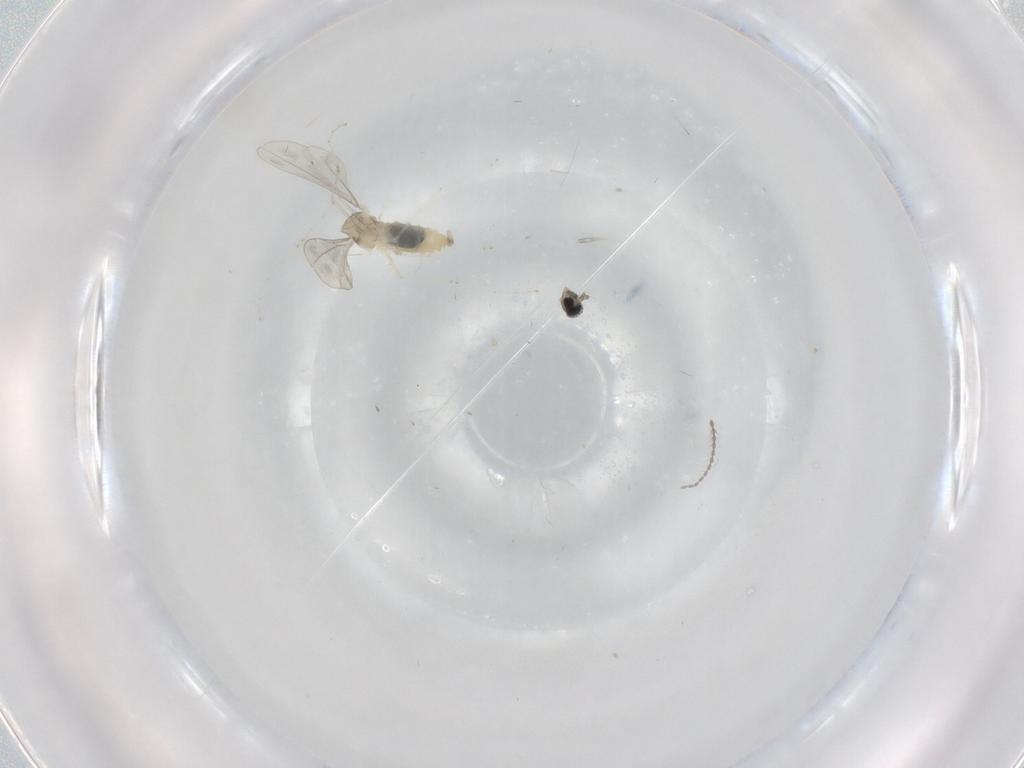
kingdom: Animalia
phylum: Arthropoda
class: Insecta
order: Diptera
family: Cecidomyiidae
